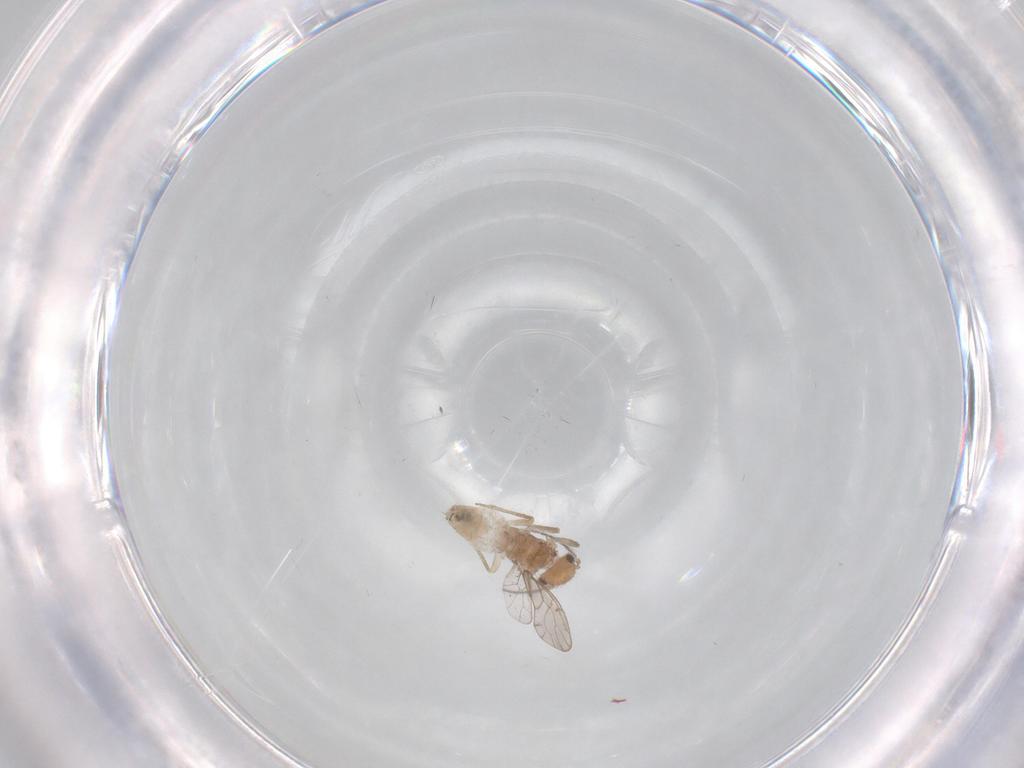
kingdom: Animalia
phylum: Arthropoda
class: Insecta
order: Psocodea
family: Ectopsocidae
